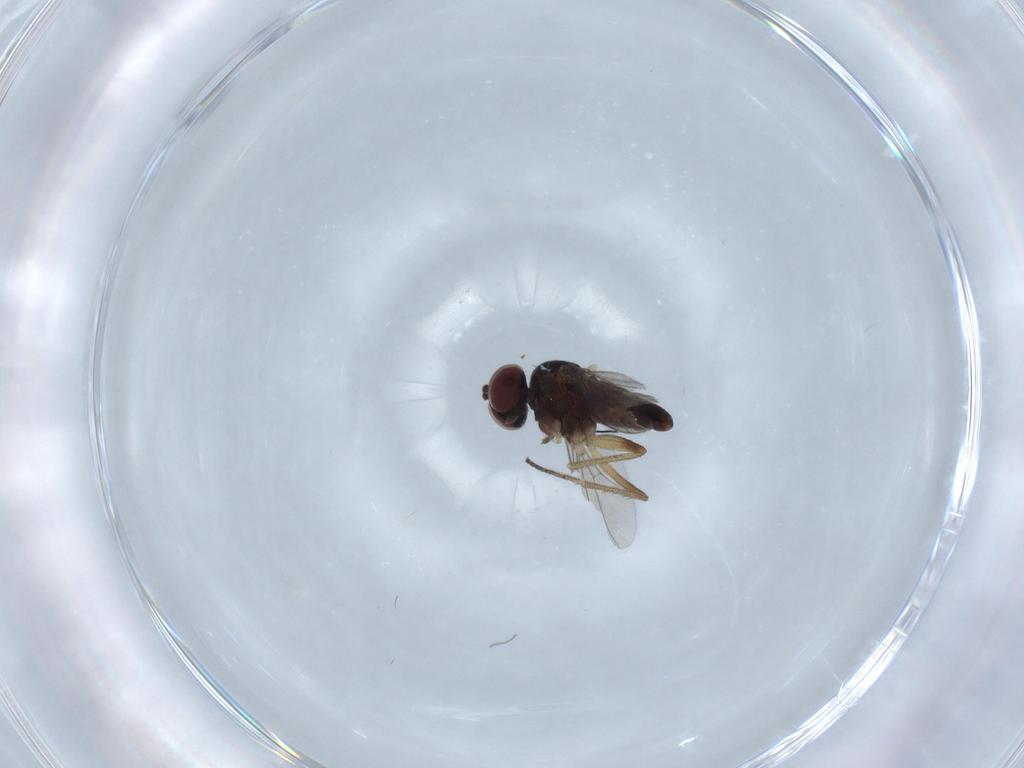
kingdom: Animalia
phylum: Arthropoda
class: Insecta
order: Diptera
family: Dolichopodidae
